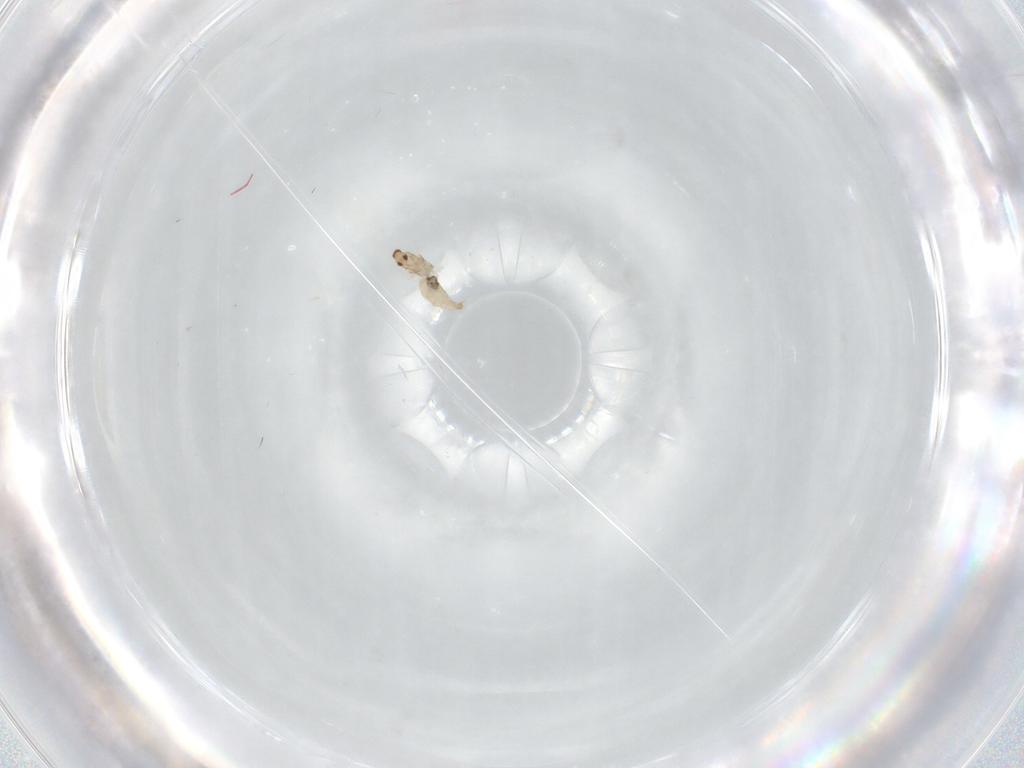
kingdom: Animalia
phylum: Arthropoda
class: Insecta
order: Diptera
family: Cecidomyiidae
